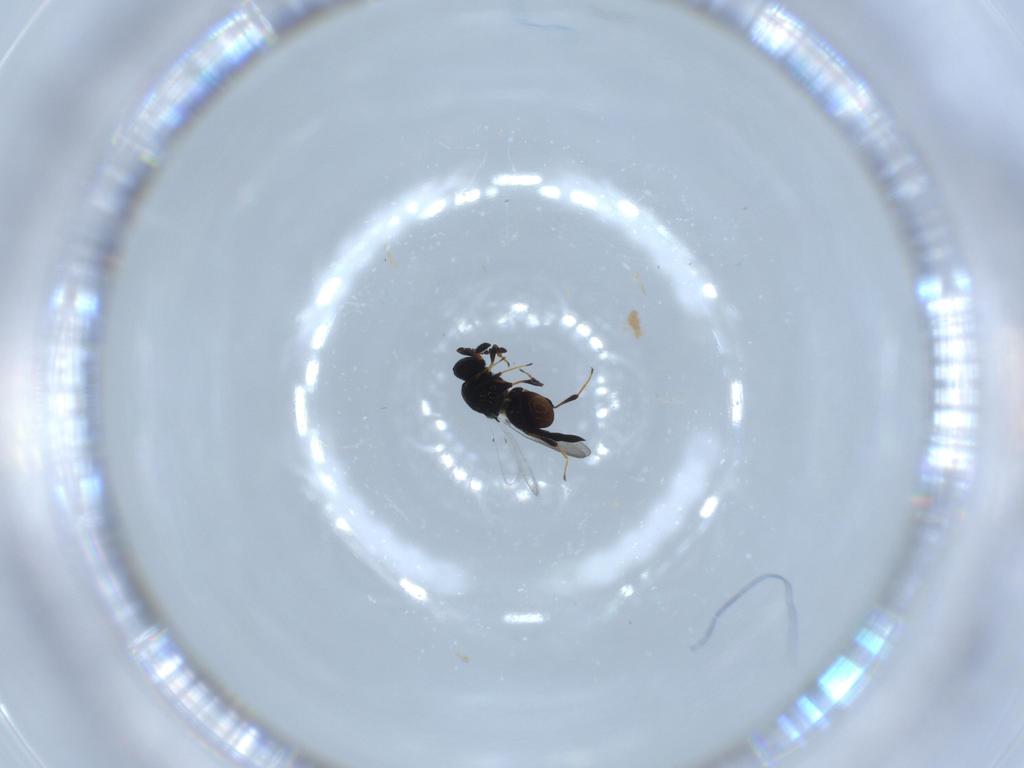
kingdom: Animalia
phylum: Arthropoda
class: Insecta
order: Hymenoptera
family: Platygastridae
